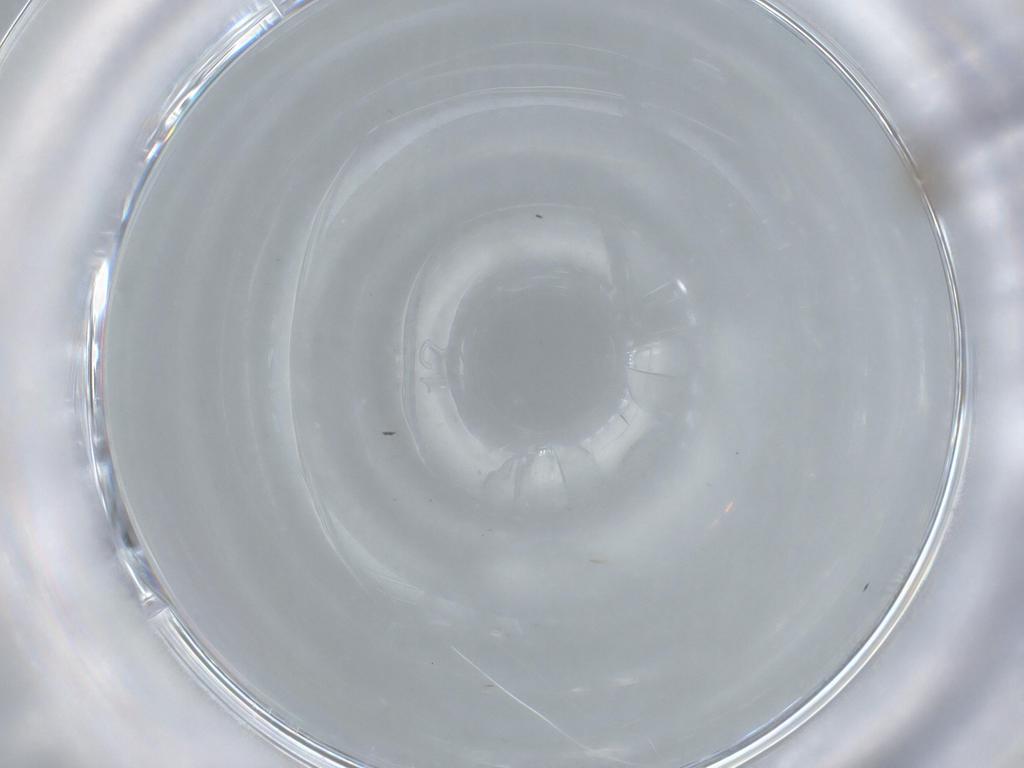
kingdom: Animalia
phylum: Arthropoda
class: Insecta
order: Diptera
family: Cecidomyiidae
